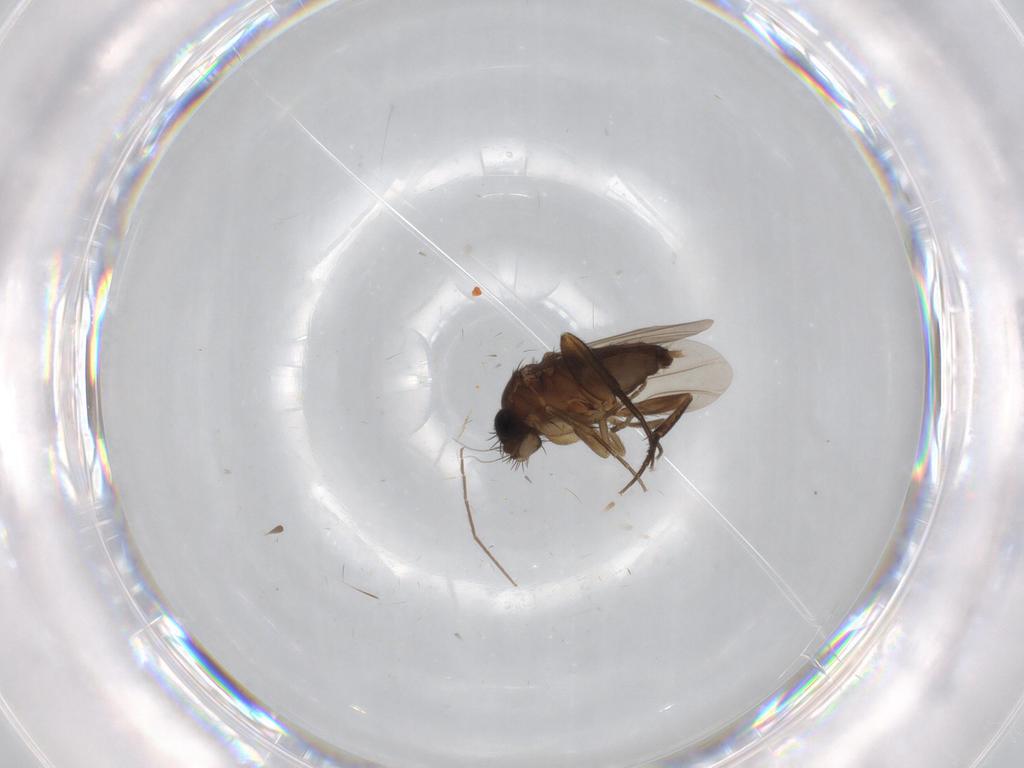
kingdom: Animalia
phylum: Arthropoda
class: Insecta
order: Diptera
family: Phoridae
